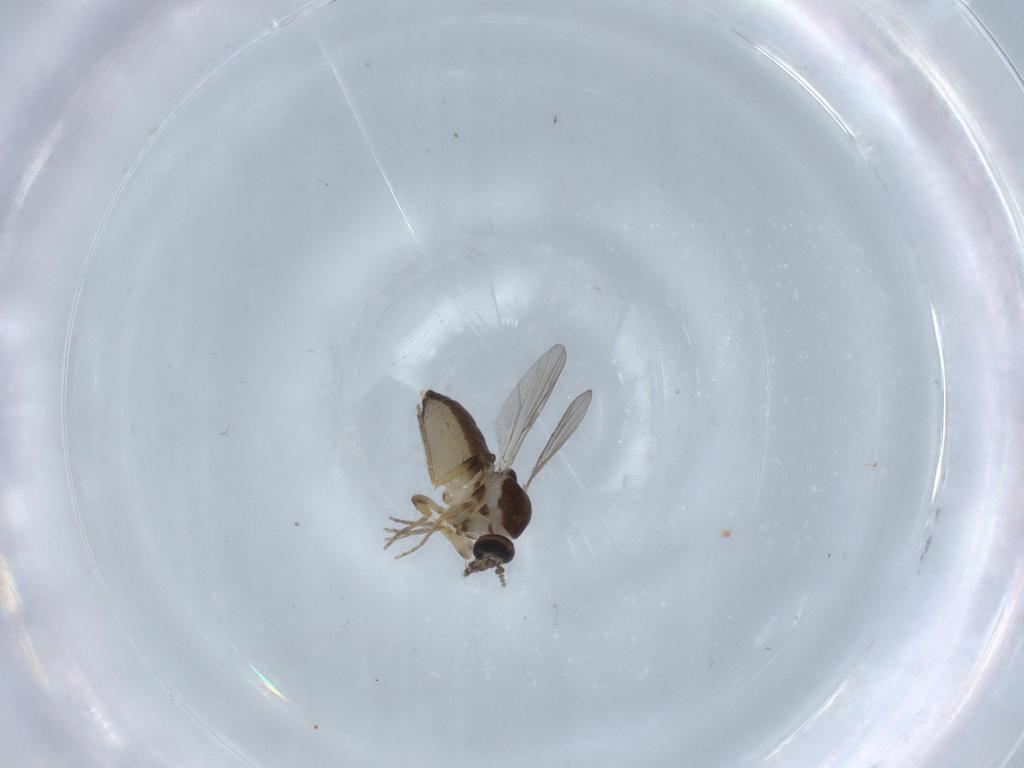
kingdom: Animalia
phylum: Arthropoda
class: Insecta
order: Diptera
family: Ceratopogonidae
